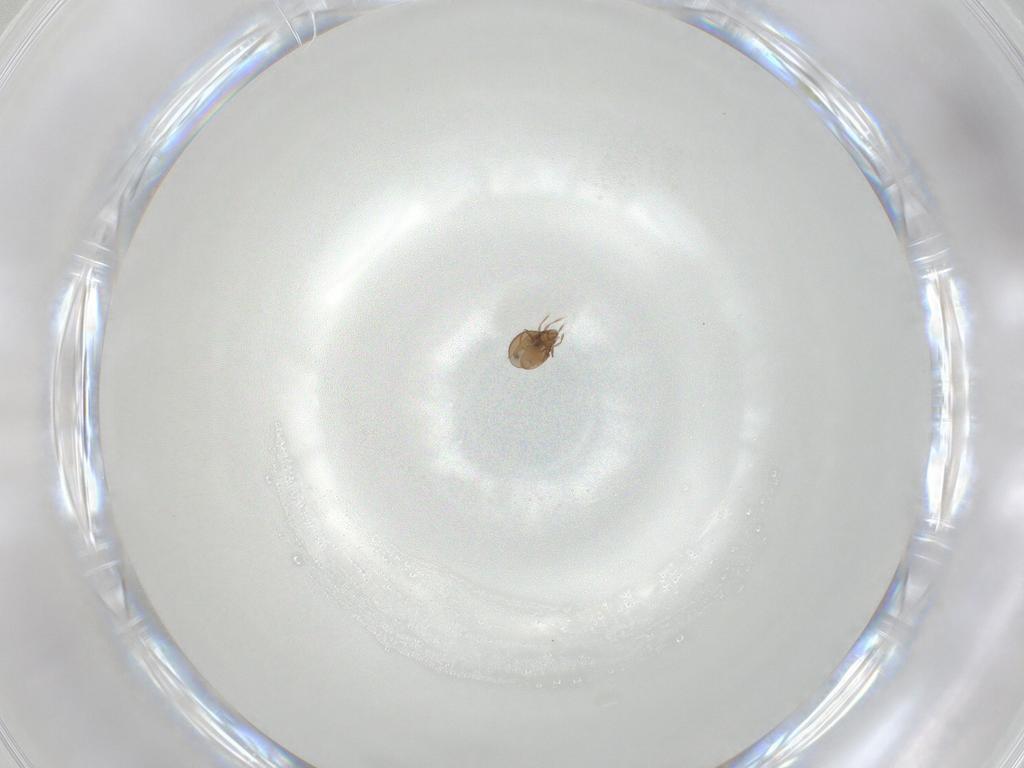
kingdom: Animalia
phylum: Arthropoda
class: Arachnida
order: Sarcoptiformes
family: Oribatulidae
